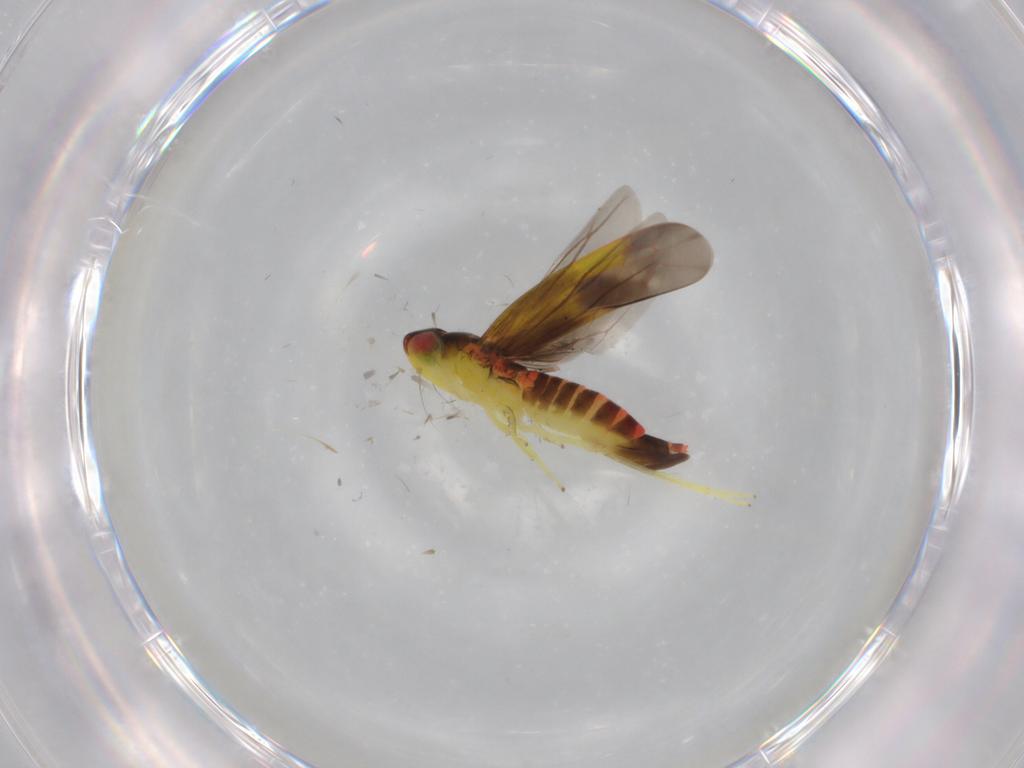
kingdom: Animalia
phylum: Arthropoda
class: Insecta
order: Hemiptera
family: Cicadellidae
